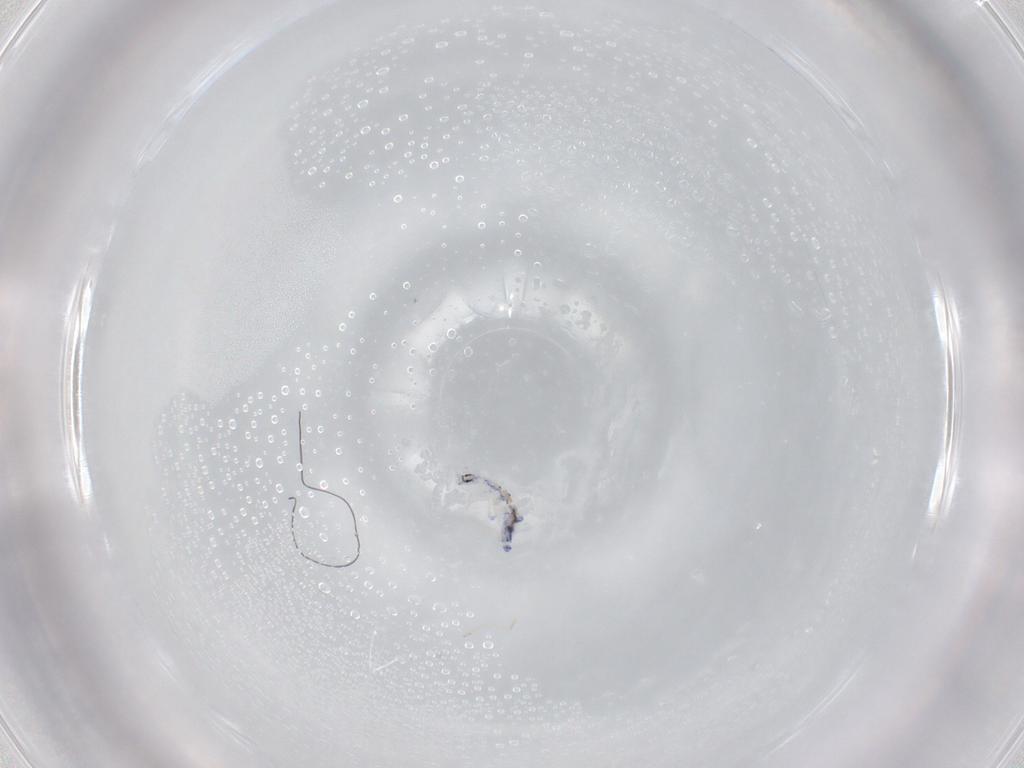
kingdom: Animalia
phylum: Arthropoda
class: Collembola
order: Entomobryomorpha
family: Entomobryidae
